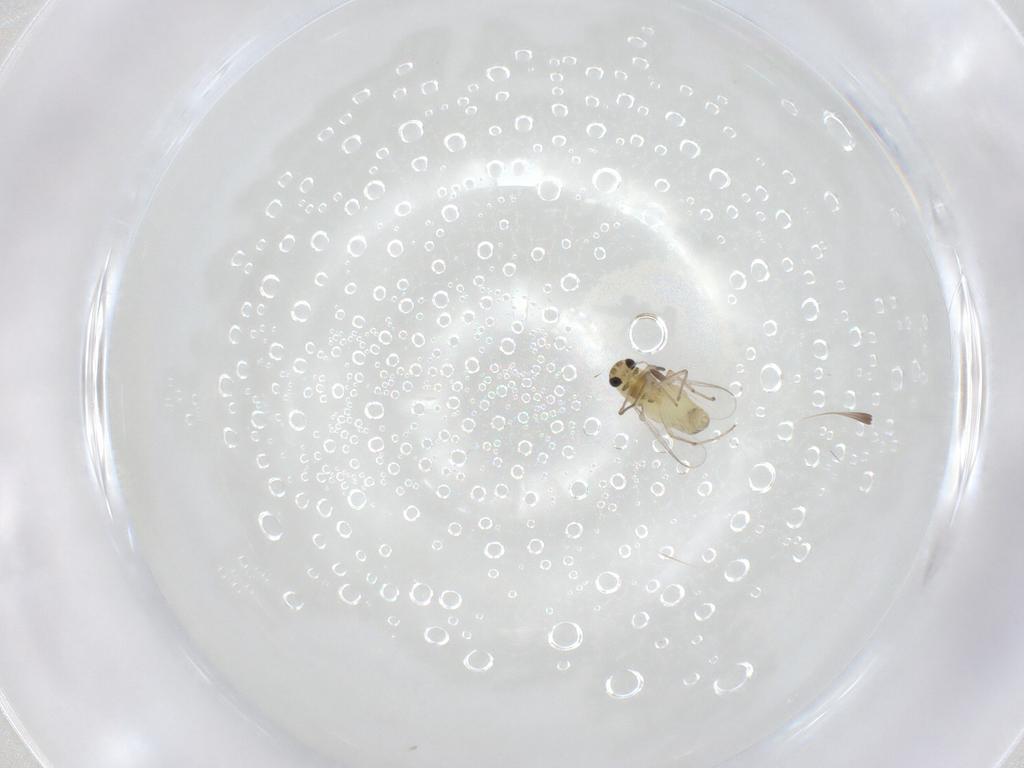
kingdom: Animalia
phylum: Arthropoda
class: Insecta
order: Diptera
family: Chironomidae
